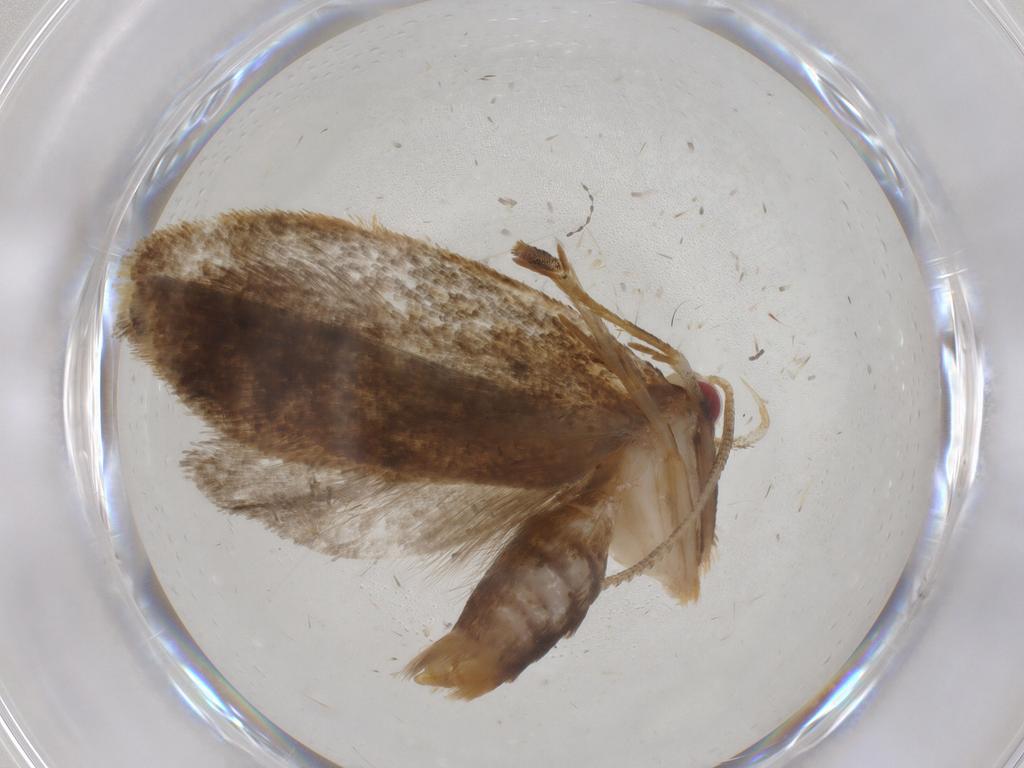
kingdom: Animalia
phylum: Arthropoda
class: Insecta
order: Lepidoptera
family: Oecophoridae
